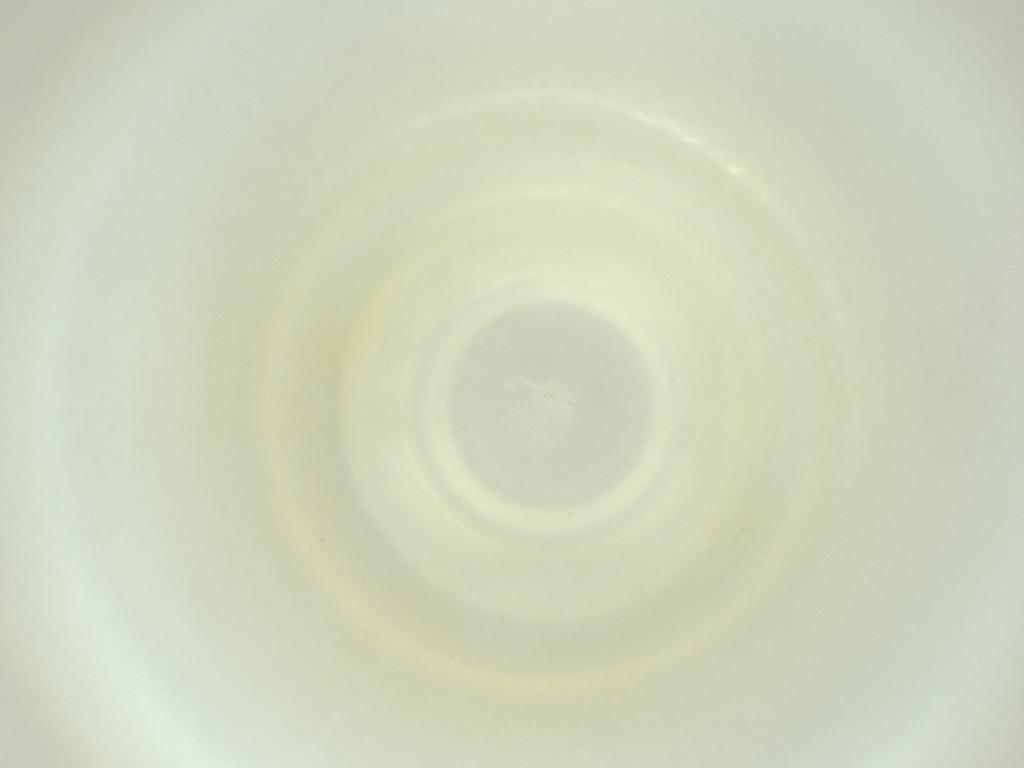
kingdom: Animalia
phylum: Arthropoda
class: Insecta
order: Diptera
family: Cecidomyiidae
